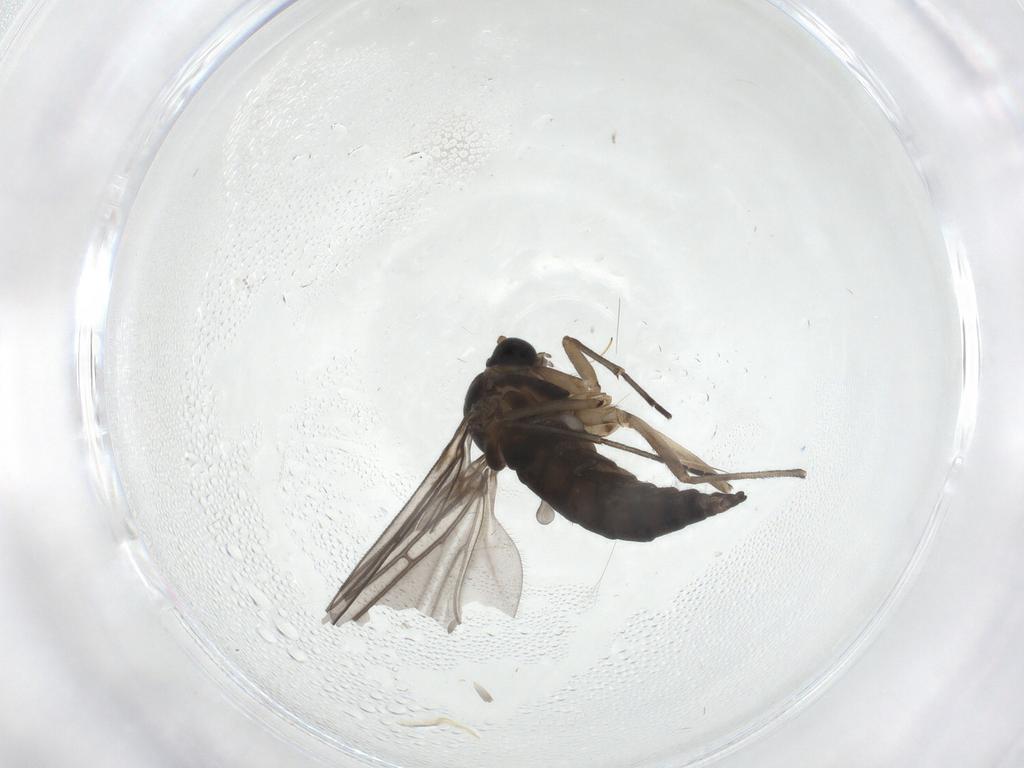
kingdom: Animalia
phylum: Arthropoda
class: Insecta
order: Diptera
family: Sciaridae
